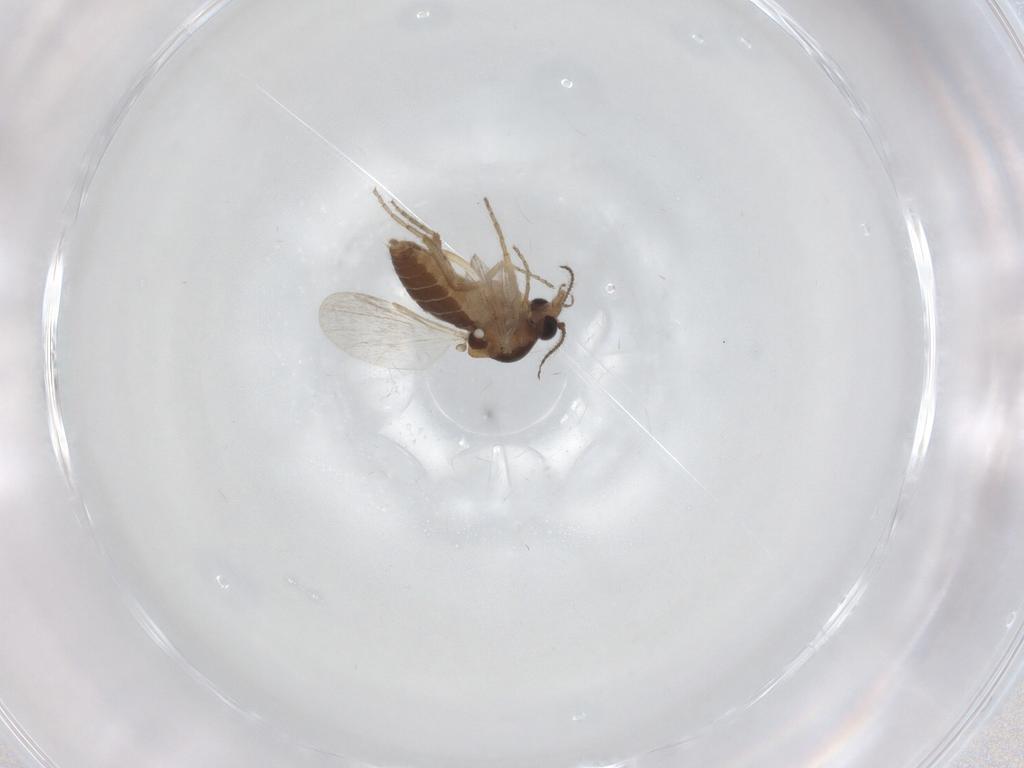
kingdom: Animalia
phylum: Arthropoda
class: Insecta
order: Diptera
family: Ceratopogonidae
